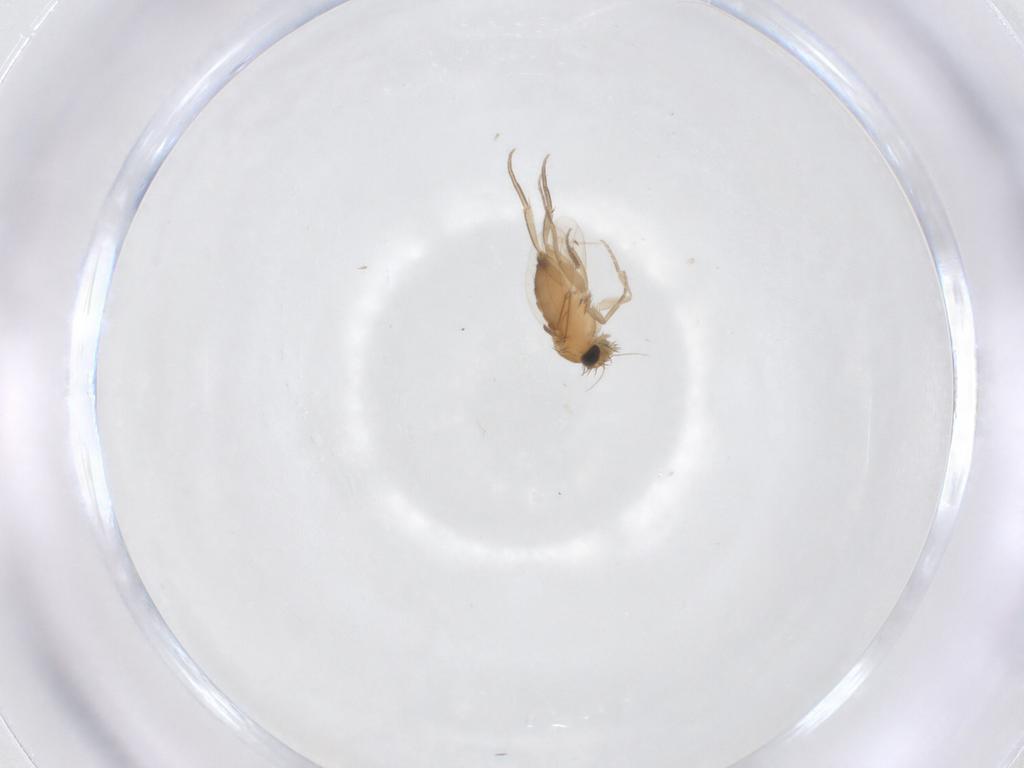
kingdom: Animalia
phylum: Arthropoda
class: Insecta
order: Diptera
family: Phoridae
